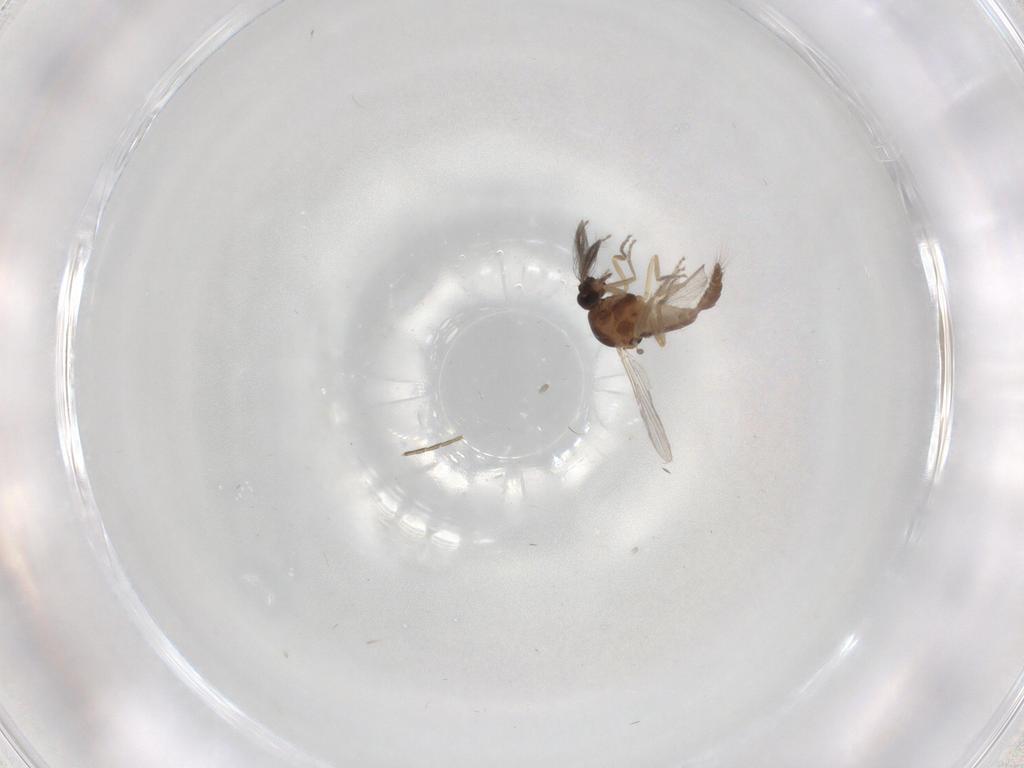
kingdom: Animalia
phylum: Arthropoda
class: Insecta
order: Diptera
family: Ceratopogonidae
